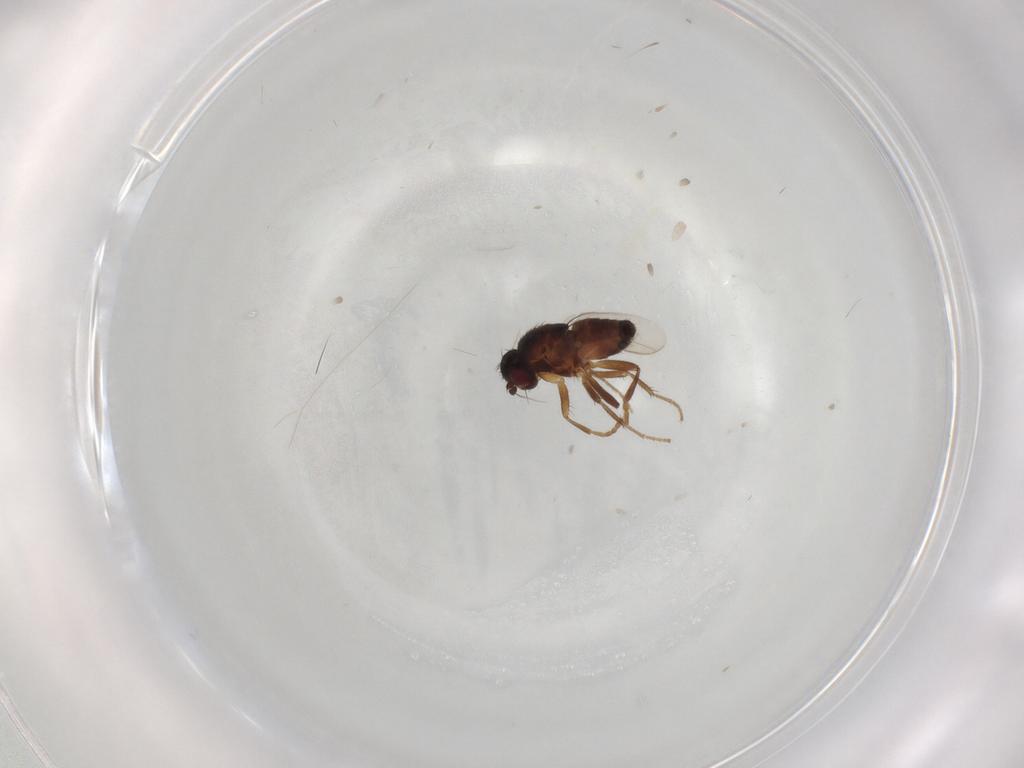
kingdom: Animalia
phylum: Arthropoda
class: Insecta
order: Diptera
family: Sphaeroceridae
